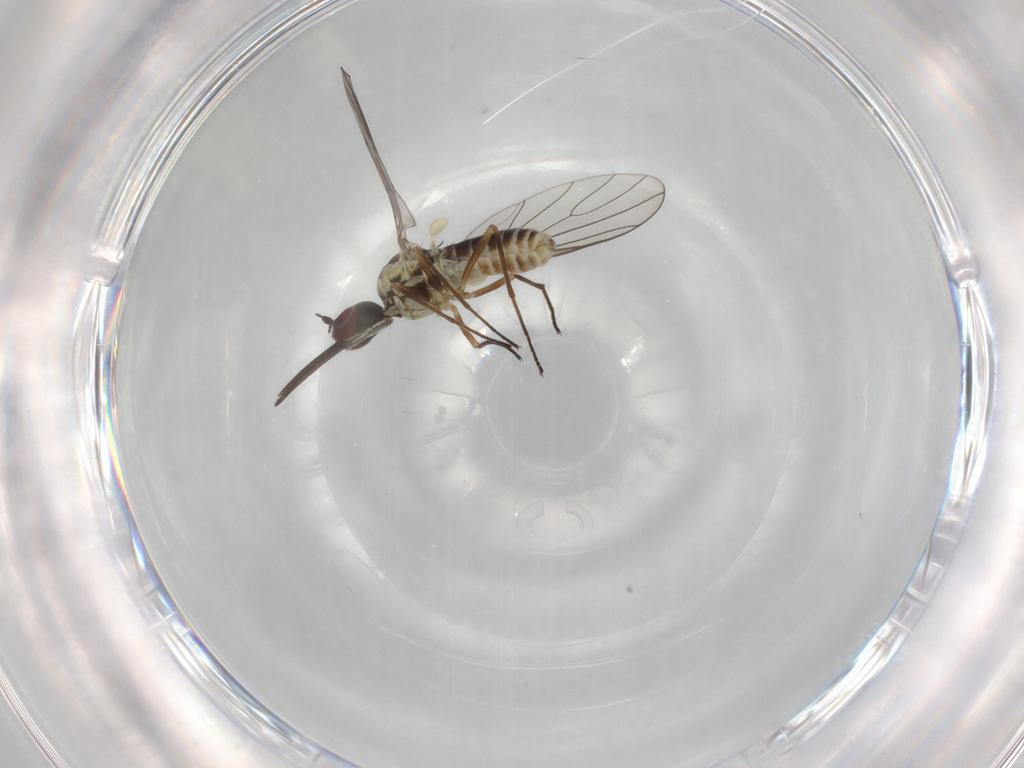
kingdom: Animalia
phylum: Arthropoda
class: Insecta
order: Diptera
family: Bombyliidae
